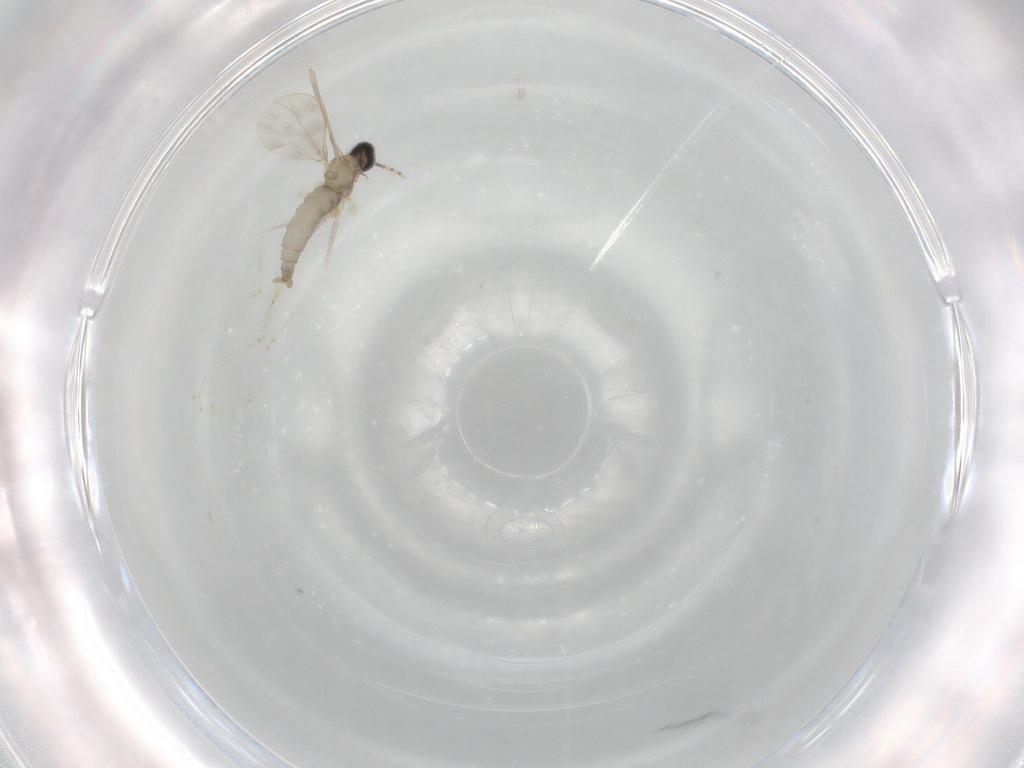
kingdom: Animalia
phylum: Arthropoda
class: Insecta
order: Diptera
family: Cecidomyiidae
